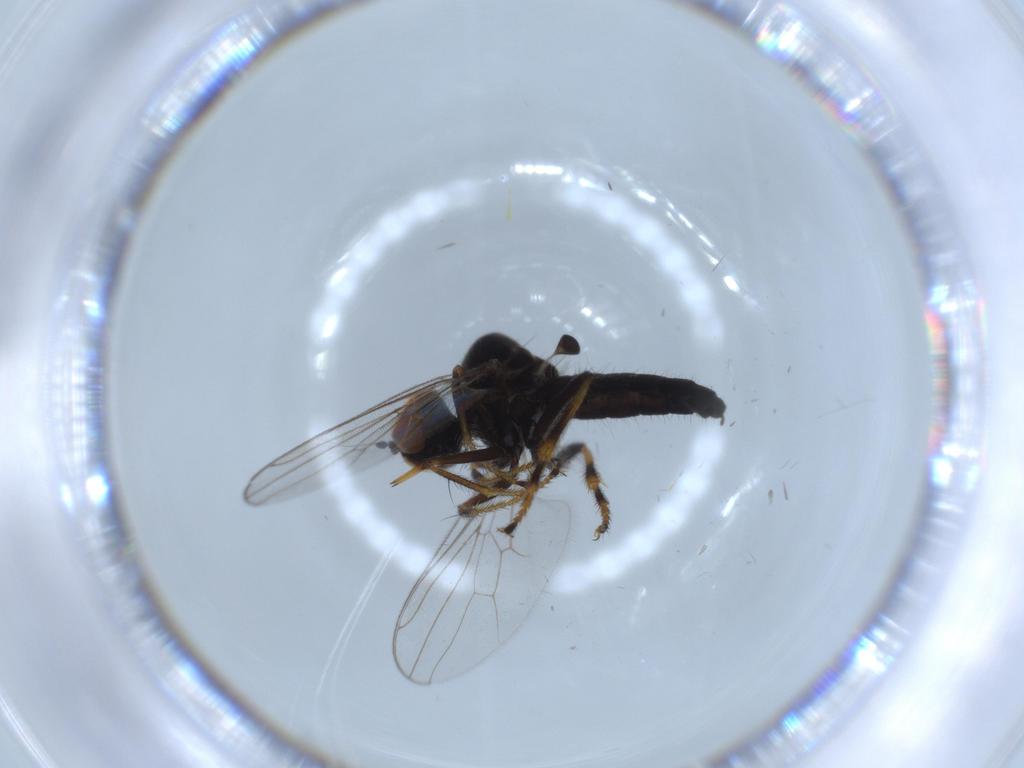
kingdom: Animalia
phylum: Arthropoda
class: Insecta
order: Diptera
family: Hybotidae
